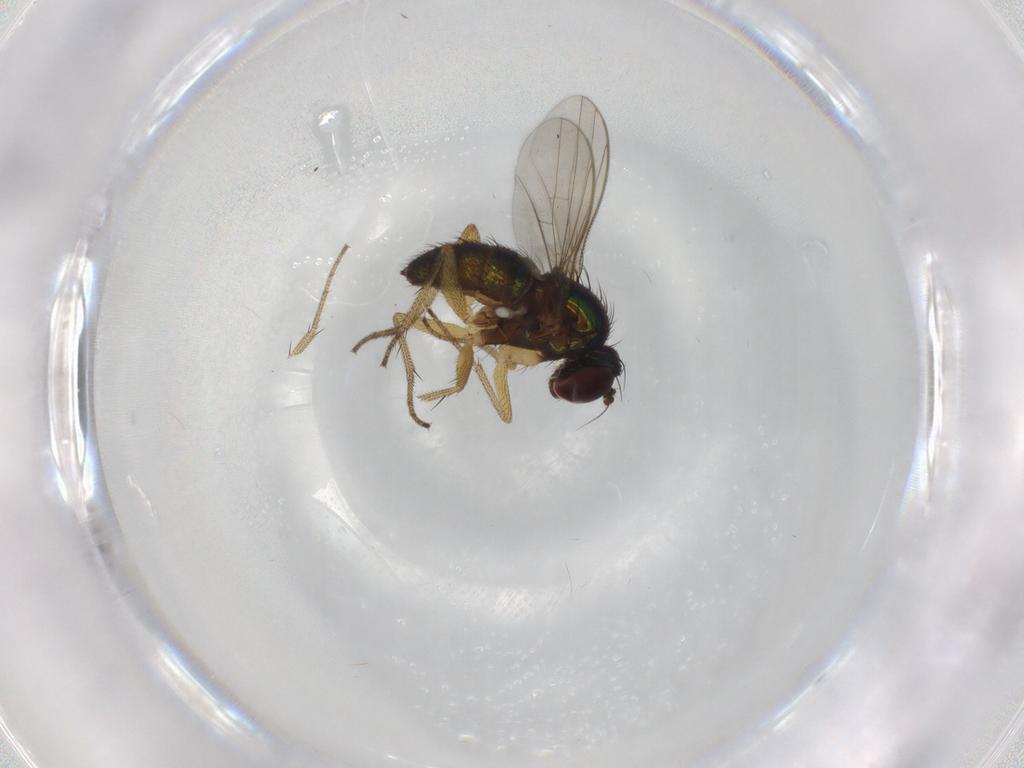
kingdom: Animalia
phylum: Arthropoda
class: Insecta
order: Diptera
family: Dolichopodidae
